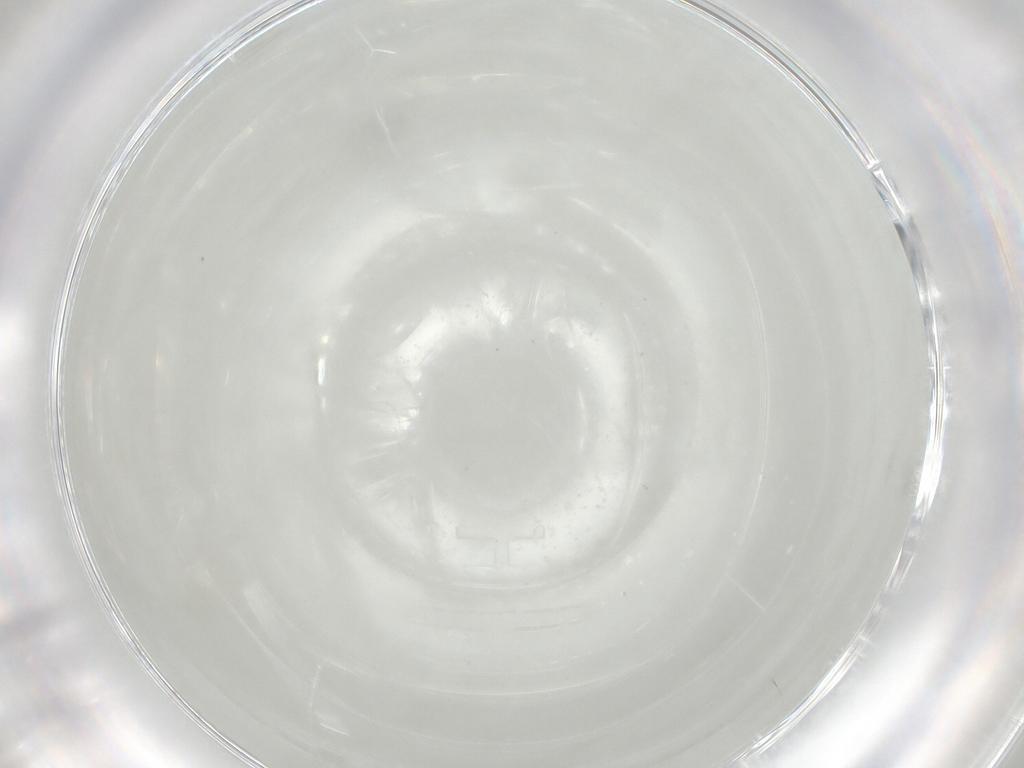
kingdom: Animalia
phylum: Arthropoda
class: Insecta
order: Diptera
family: Chironomidae
